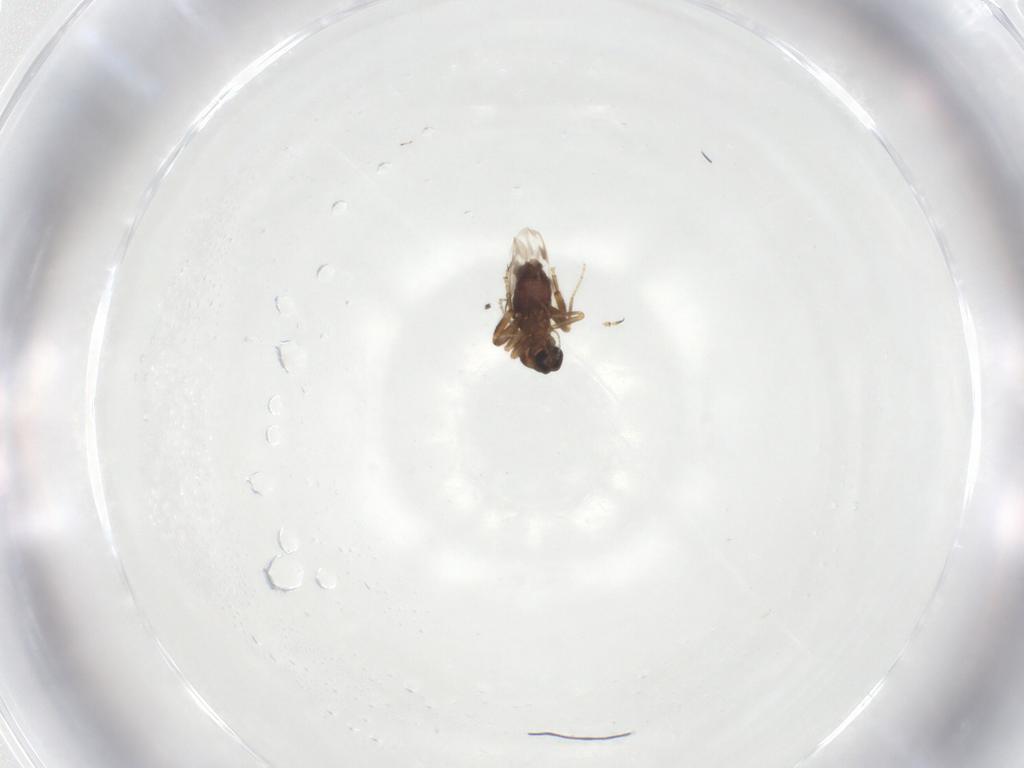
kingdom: Animalia
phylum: Arthropoda
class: Insecta
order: Diptera
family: Ceratopogonidae
